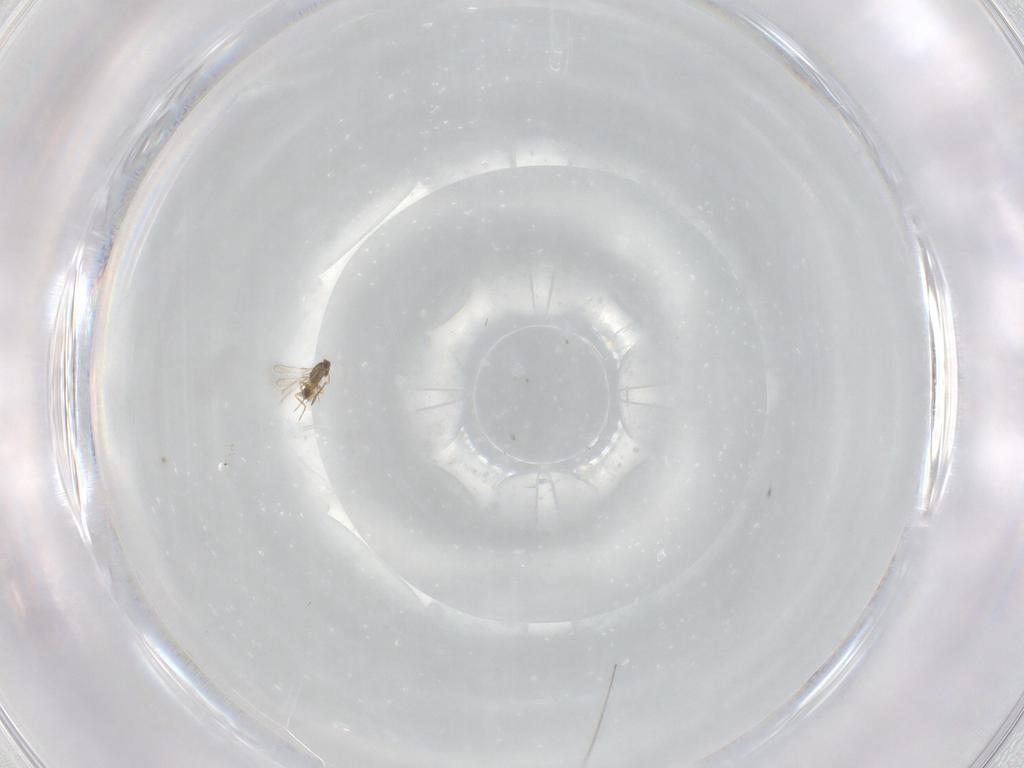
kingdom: Animalia
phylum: Arthropoda
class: Insecta
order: Hymenoptera
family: Mymaridae
